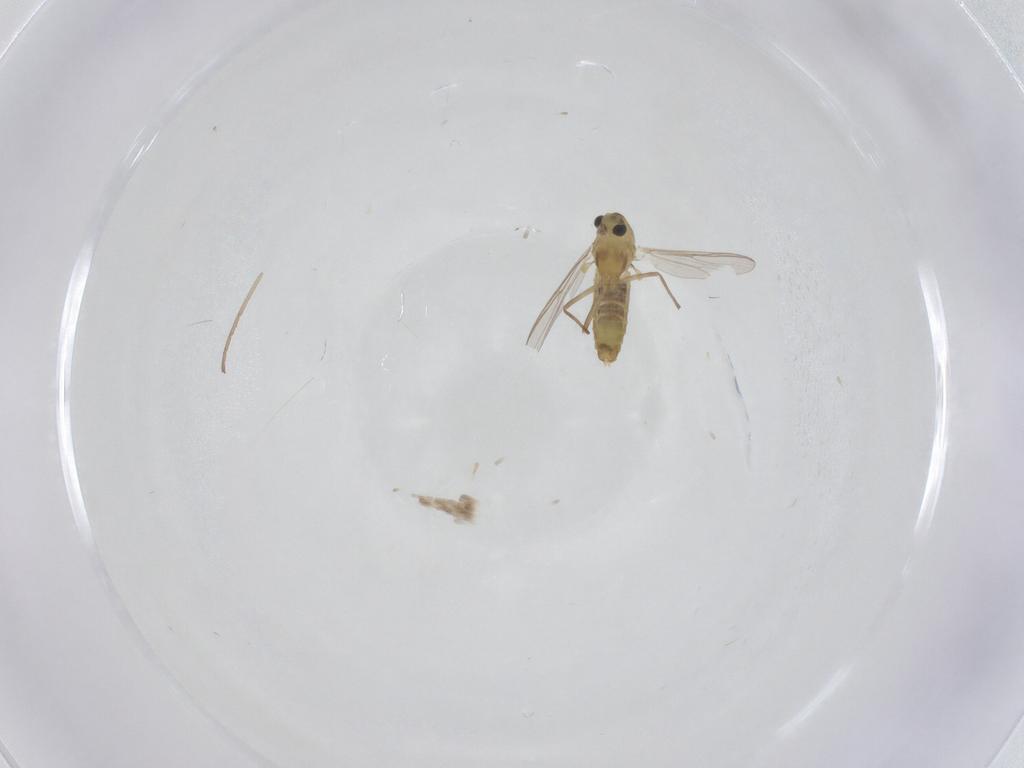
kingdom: Animalia
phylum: Arthropoda
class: Insecta
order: Diptera
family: Chironomidae
